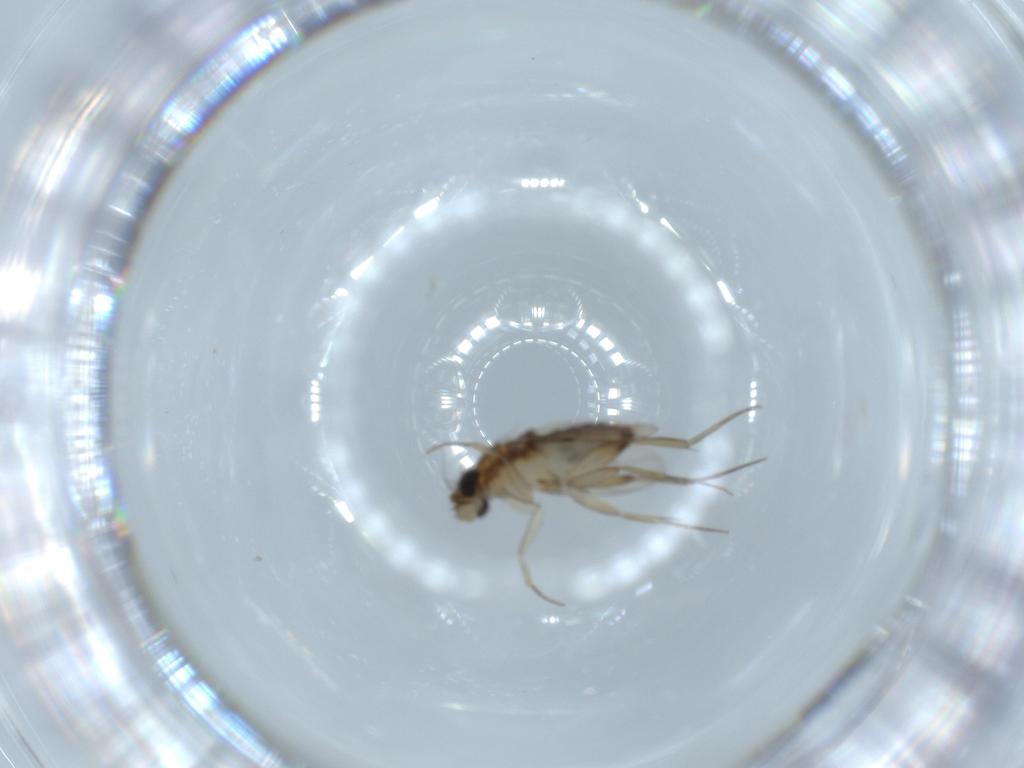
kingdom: Animalia
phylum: Arthropoda
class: Insecta
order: Diptera
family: Phoridae
